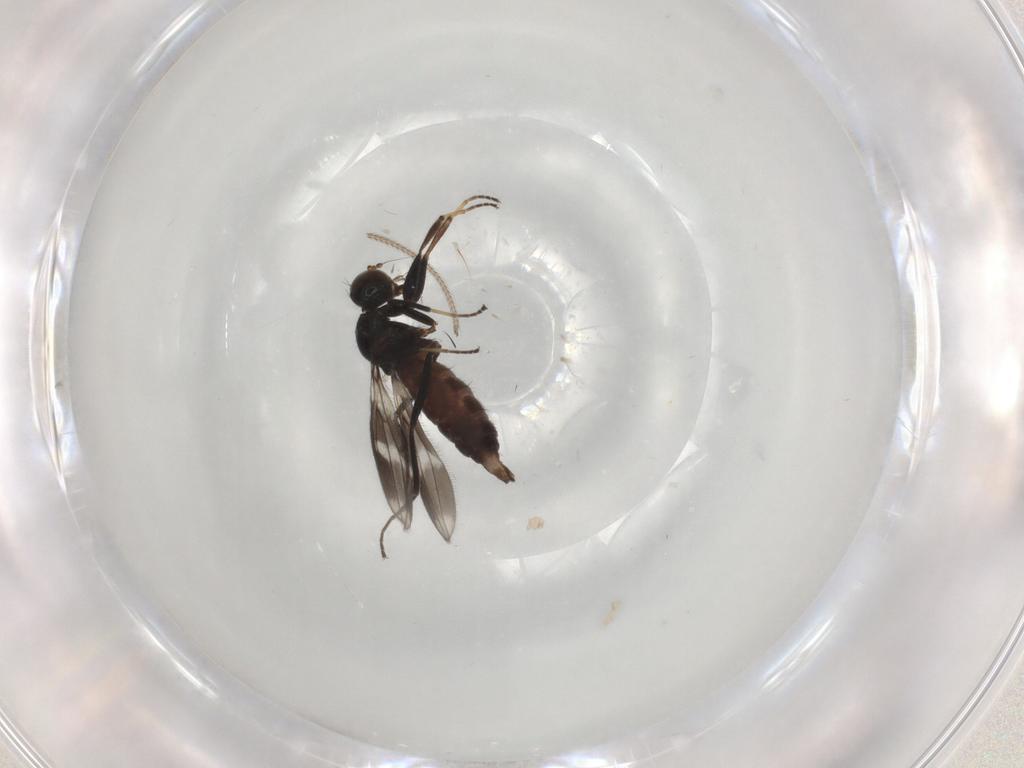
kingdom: Animalia
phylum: Arthropoda
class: Insecta
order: Diptera
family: Hybotidae
